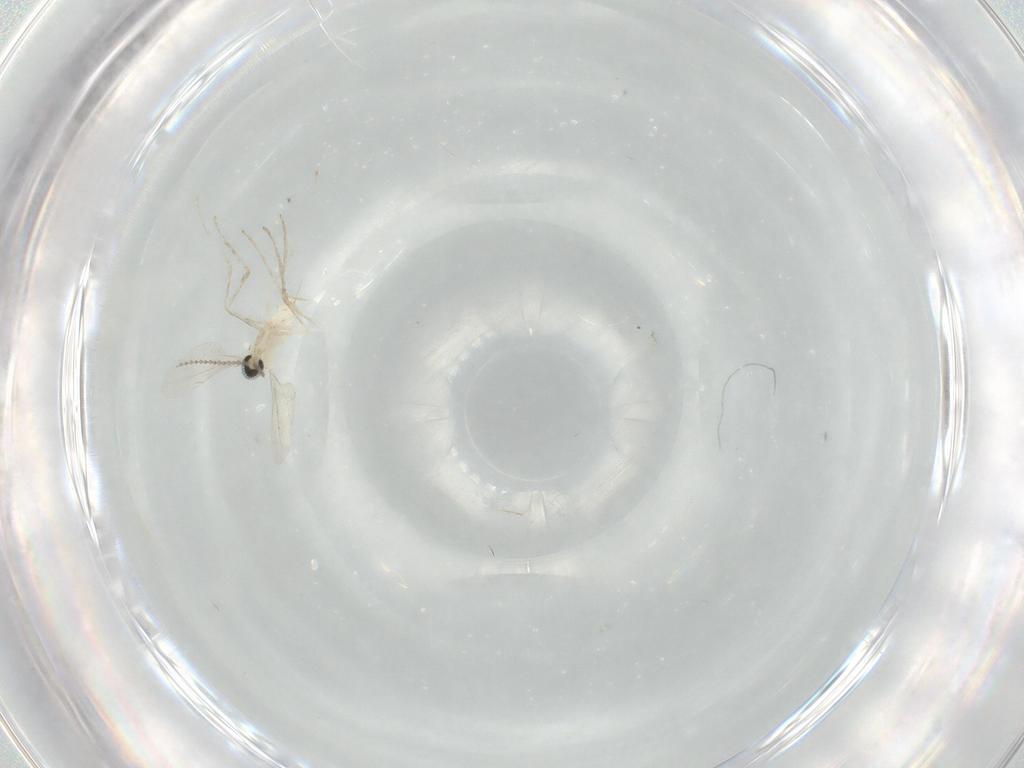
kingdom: Animalia
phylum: Arthropoda
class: Insecta
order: Diptera
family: Cecidomyiidae
